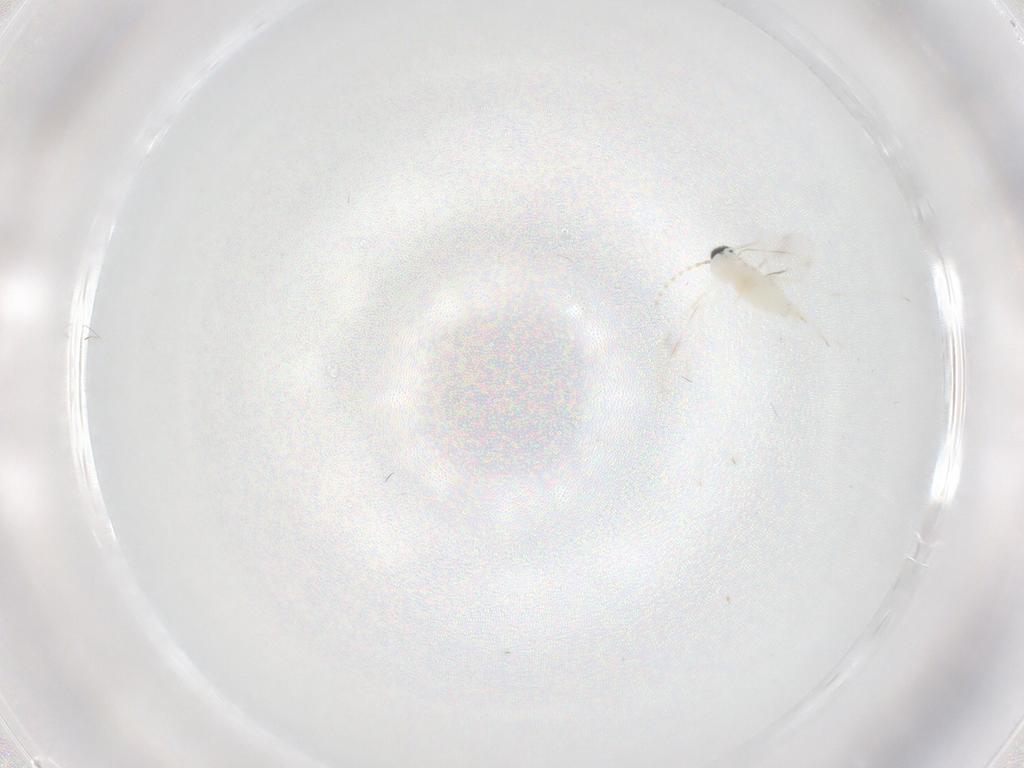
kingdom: Animalia
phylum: Arthropoda
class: Insecta
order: Diptera
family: Cecidomyiidae
